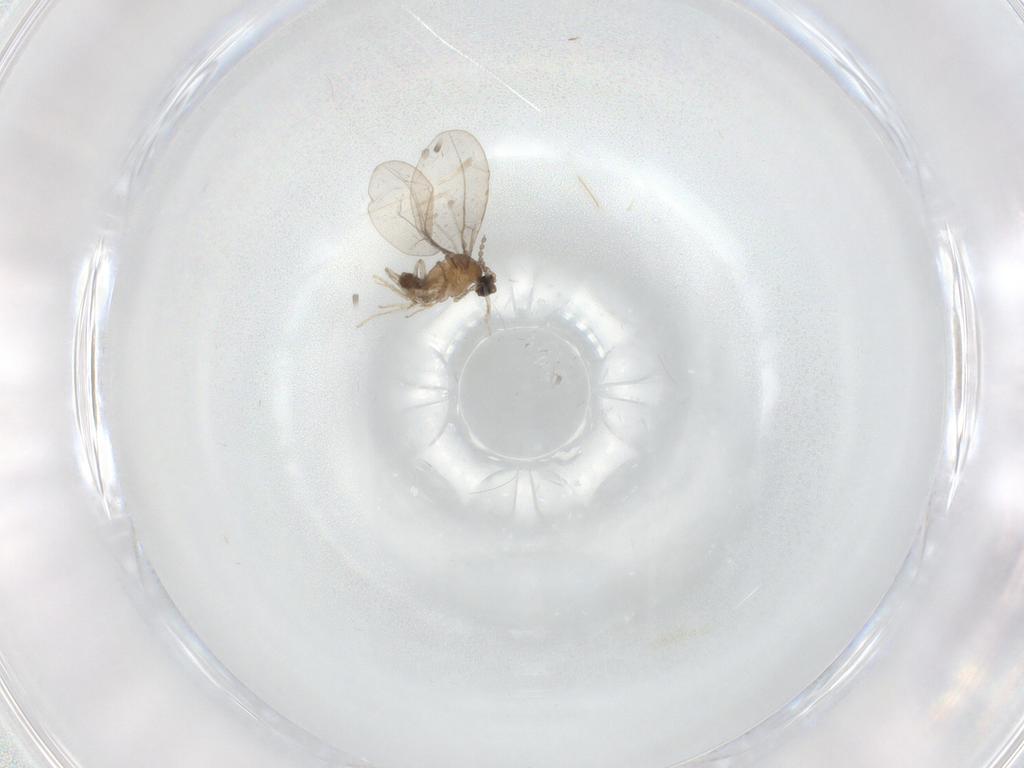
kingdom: Animalia
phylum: Arthropoda
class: Insecta
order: Diptera
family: Cecidomyiidae
